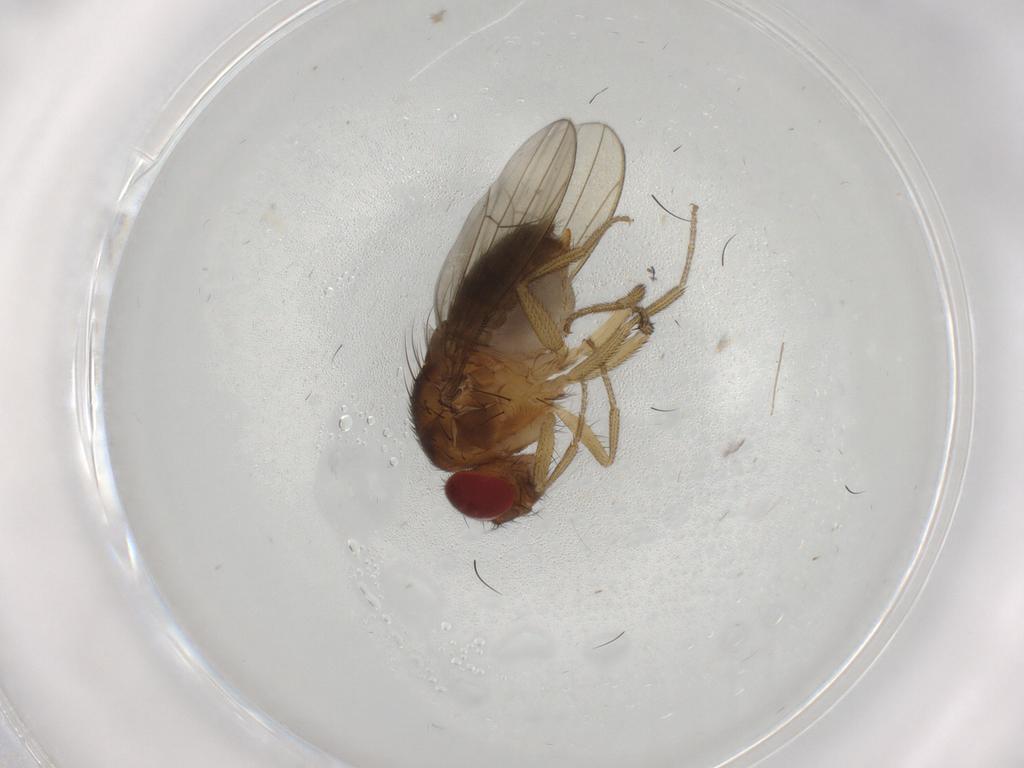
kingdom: Animalia
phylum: Arthropoda
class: Insecta
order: Diptera
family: Drosophilidae
